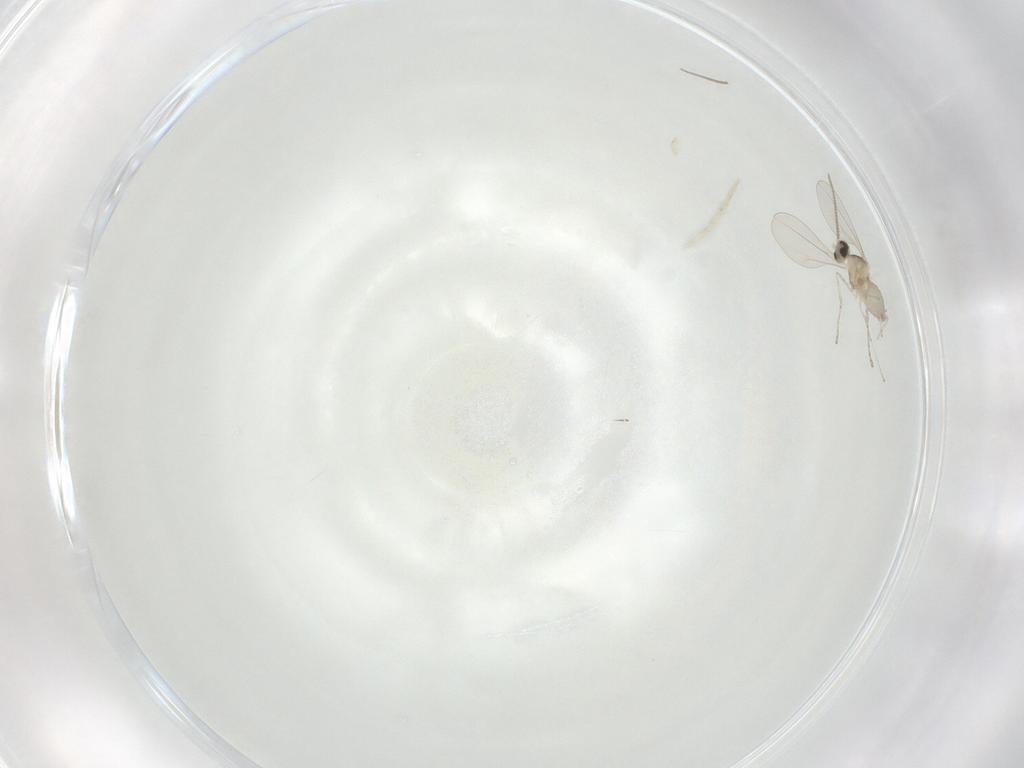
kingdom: Animalia
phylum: Arthropoda
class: Insecta
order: Diptera
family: Cecidomyiidae
